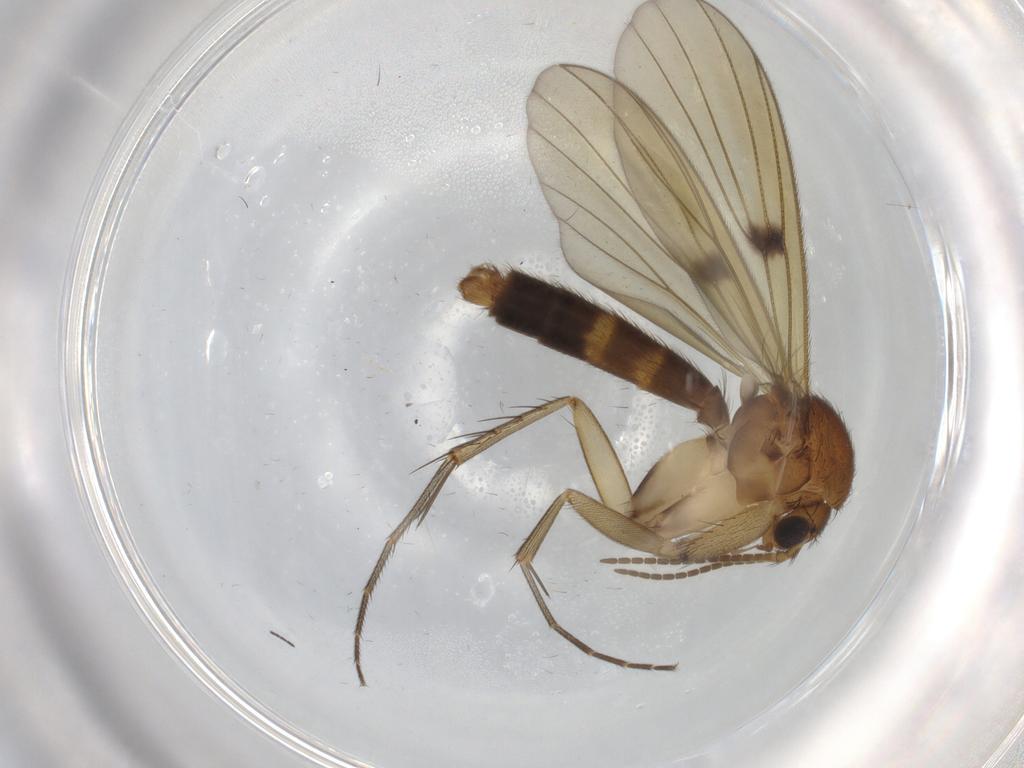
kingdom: Animalia
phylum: Arthropoda
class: Insecta
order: Diptera
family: Mycetophilidae
